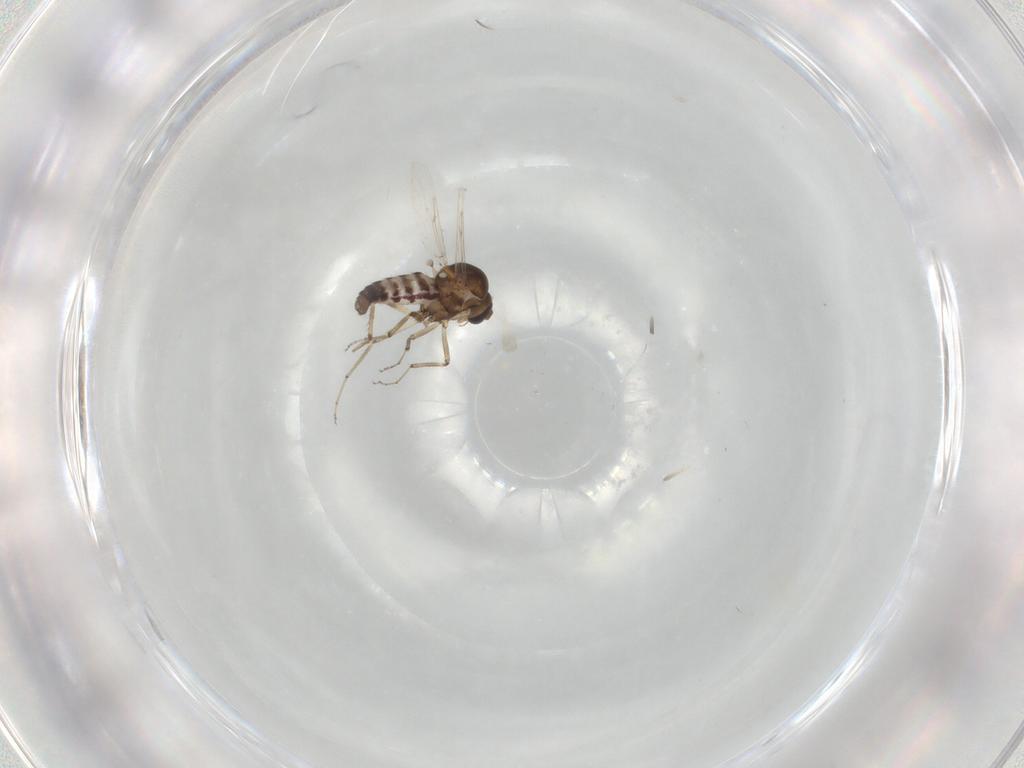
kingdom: Animalia
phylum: Arthropoda
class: Insecta
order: Diptera
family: Ceratopogonidae
